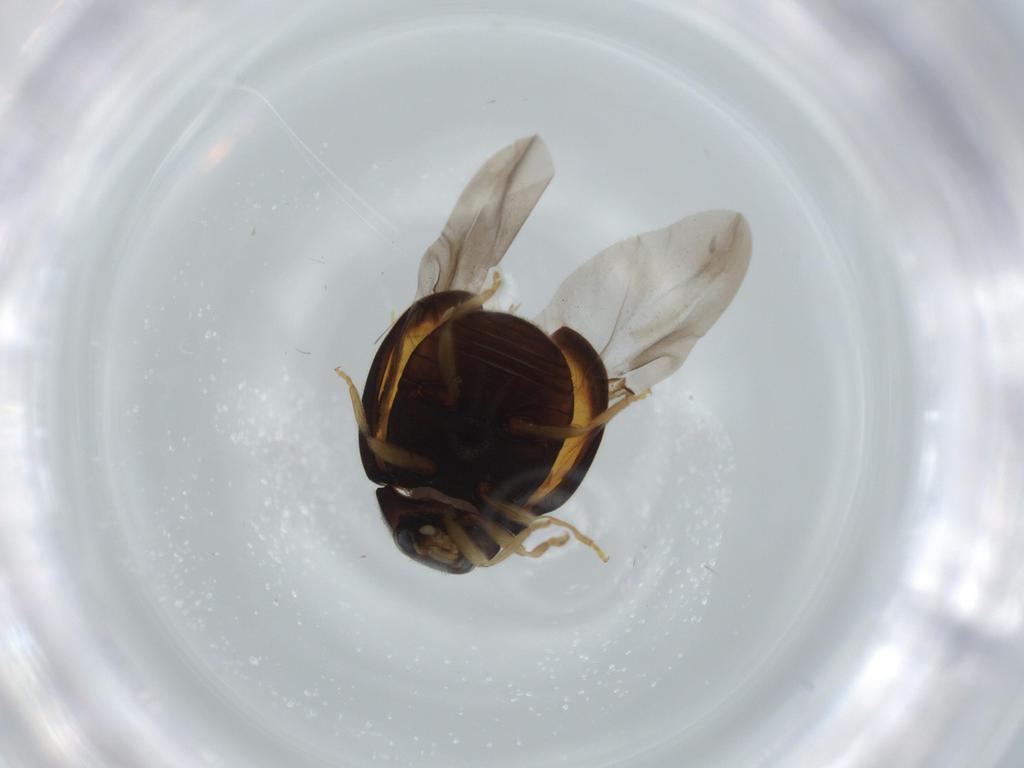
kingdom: Animalia
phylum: Arthropoda
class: Insecta
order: Coleoptera
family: Coccinellidae
